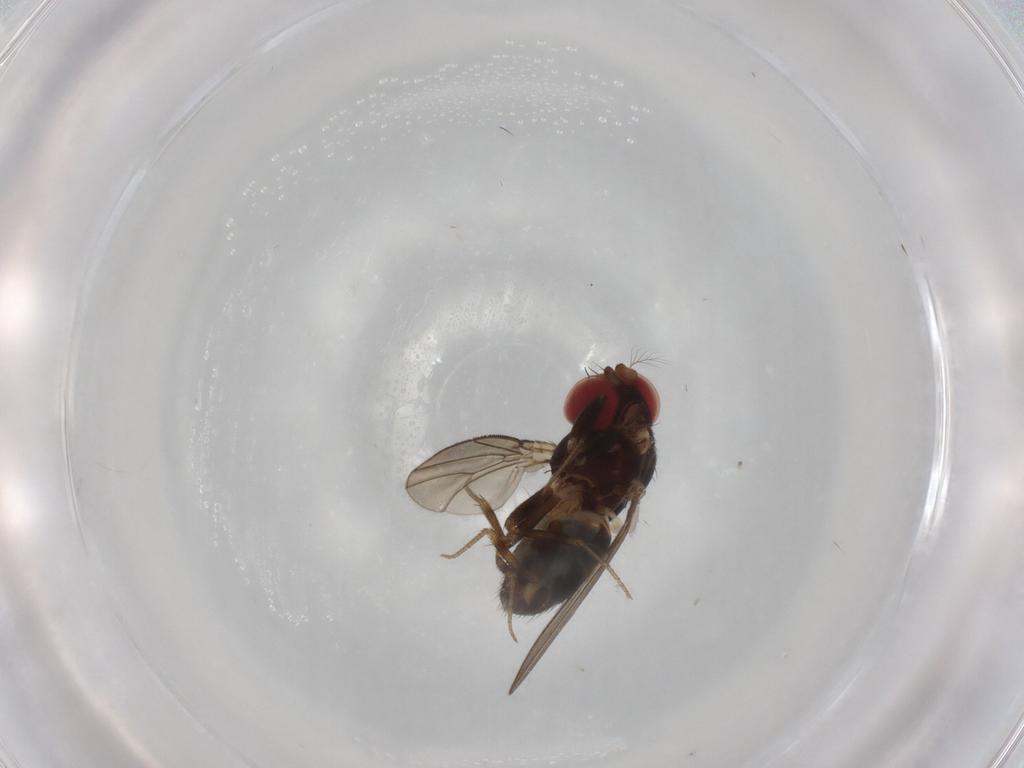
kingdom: Animalia
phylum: Arthropoda
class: Insecta
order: Diptera
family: Drosophilidae
